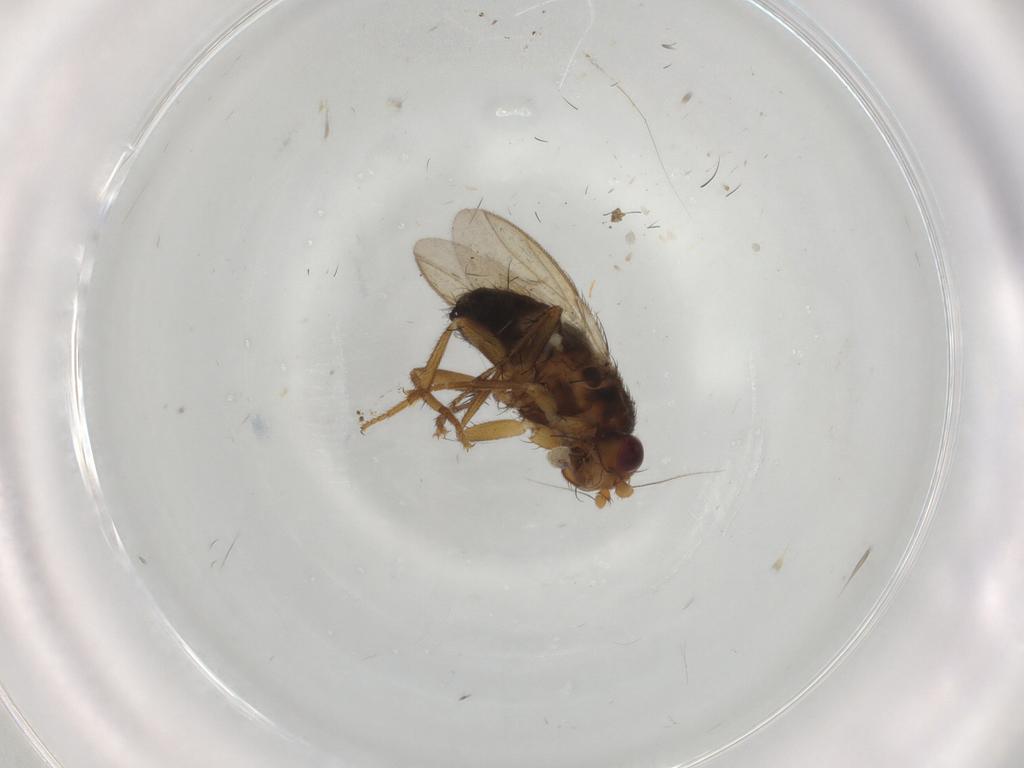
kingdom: Animalia
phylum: Arthropoda
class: Insecta
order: Diptera
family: Sphaeroceridae
